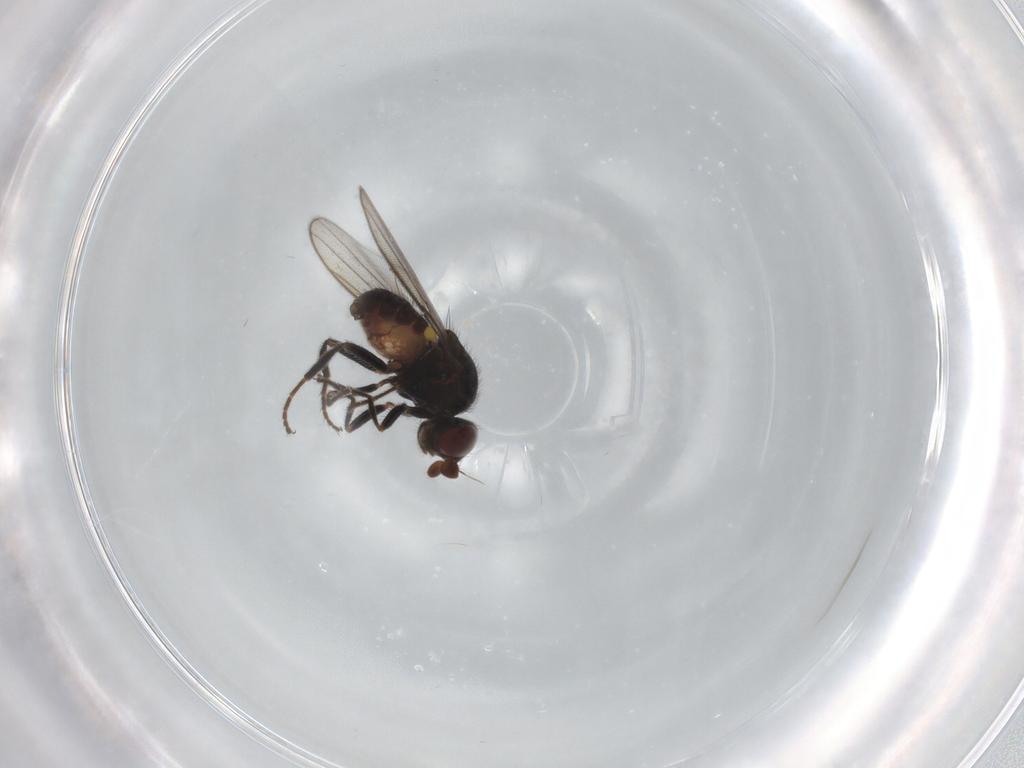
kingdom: Animalia
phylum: Arthropoda
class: Insecta
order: Diptera
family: Chloropidae
